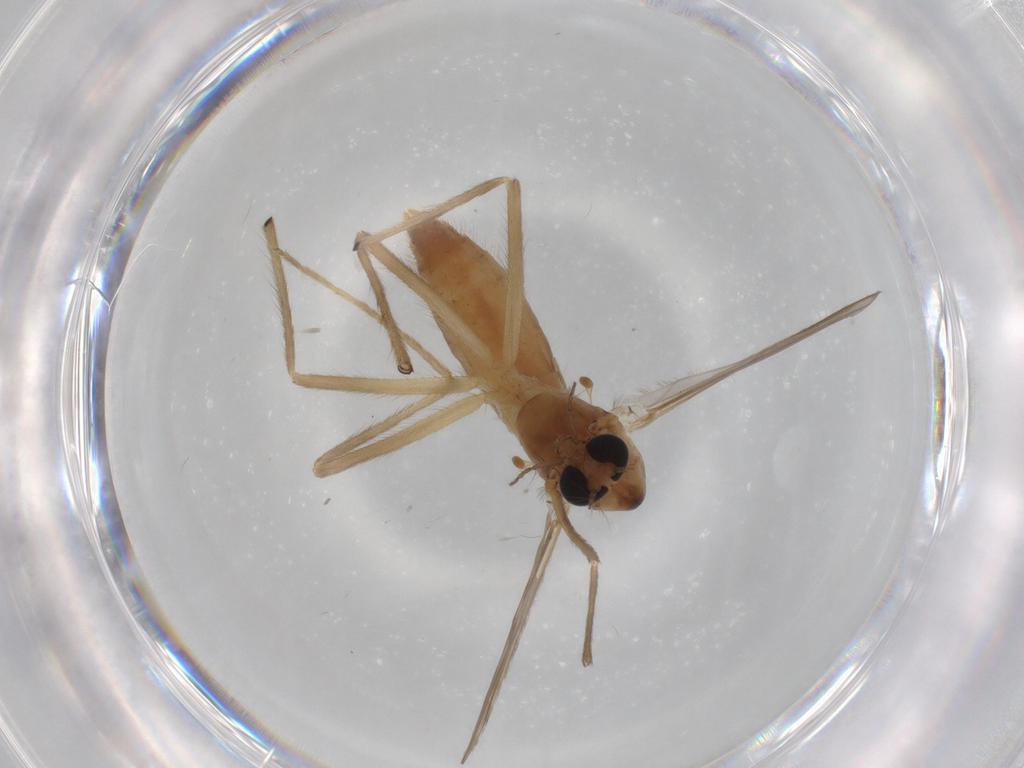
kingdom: Animalia
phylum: Arthropoda
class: Insecta
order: Diptera
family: Chironomidae
